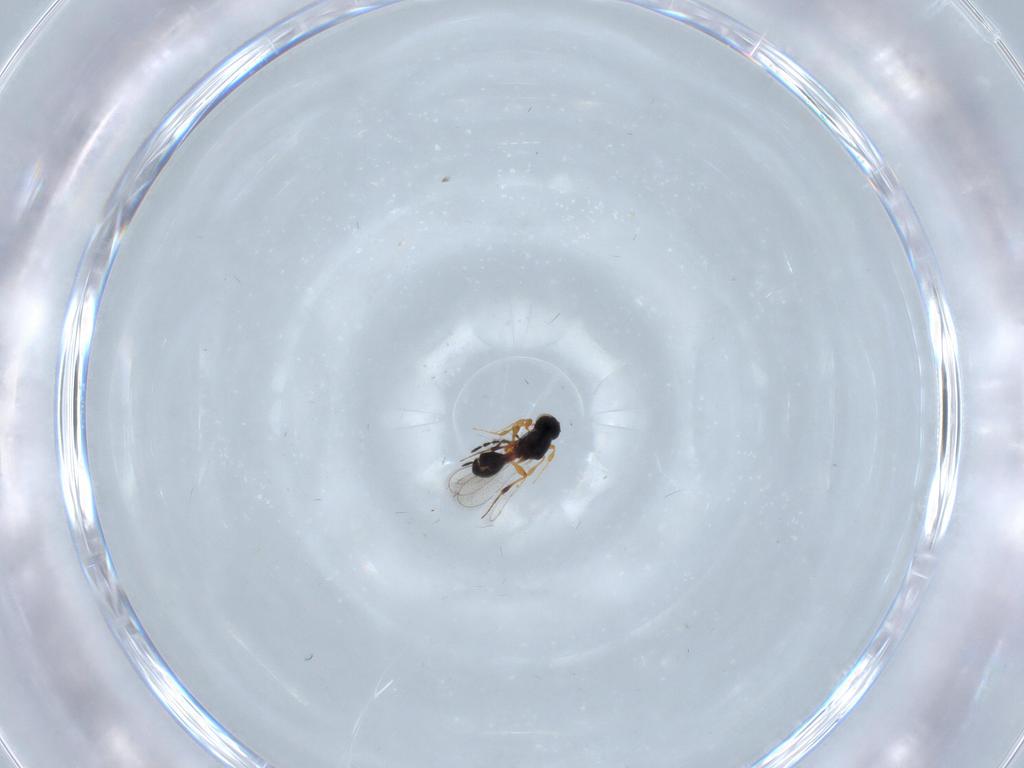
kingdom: Animalia
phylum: Arthropoda
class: Insecta
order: Hymenoptera
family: Platygastridae
